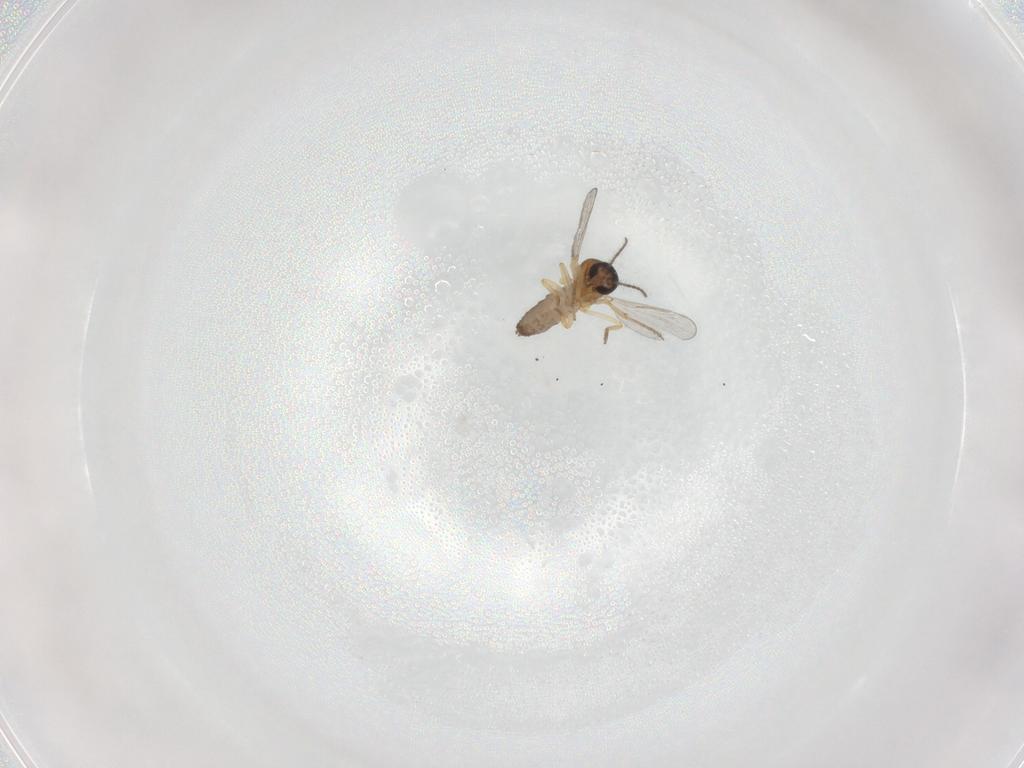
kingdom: Animalia
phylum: Arthropoda
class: Insecta
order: Diptera
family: Ceratopogonidae
